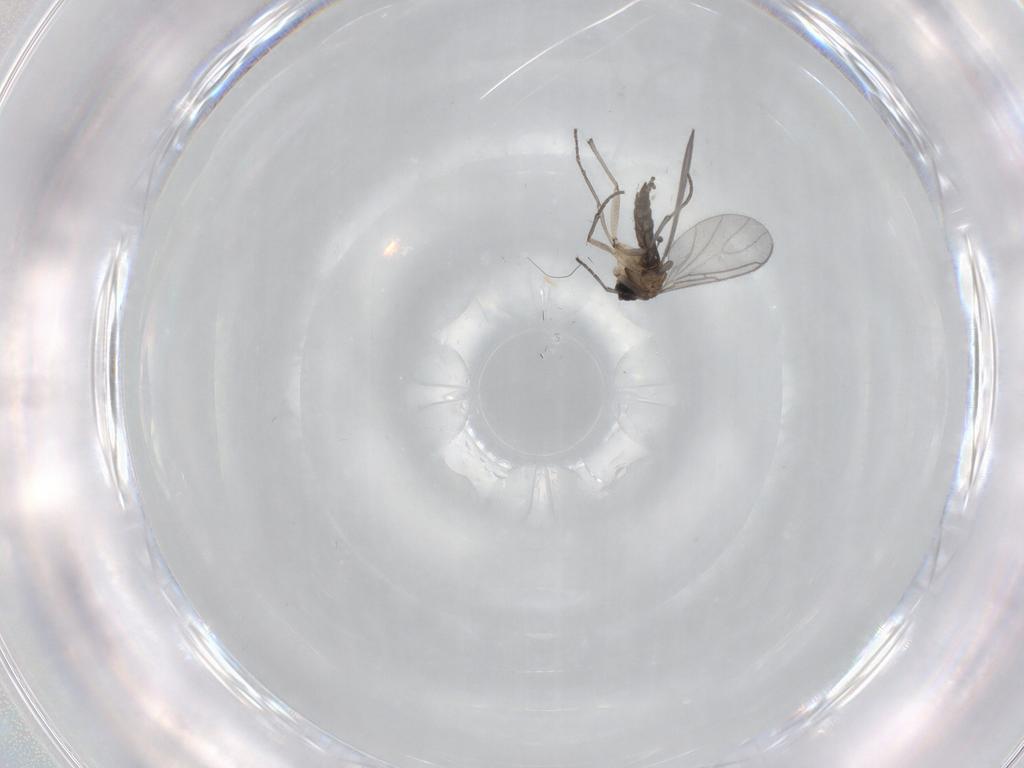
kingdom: Animalia
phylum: Arthropoda
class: Insecta
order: Diptera
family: Sciaridae
